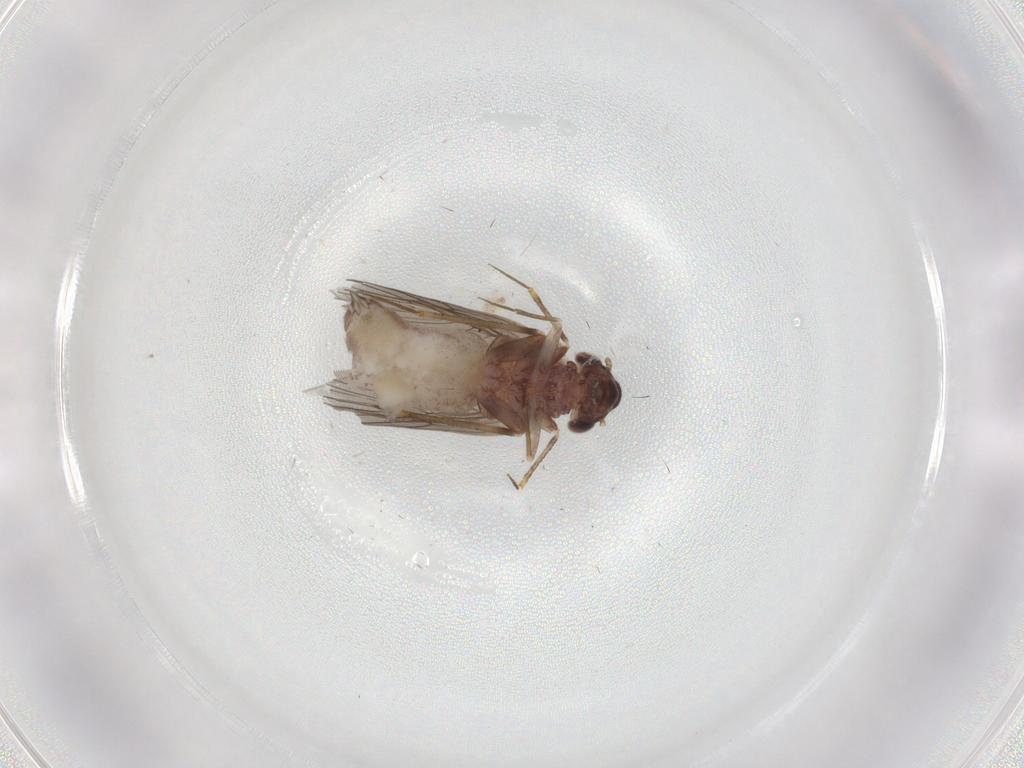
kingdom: Animalia
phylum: Arthropoda
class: Insecta
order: Psocodea
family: Lepidopsocidae
